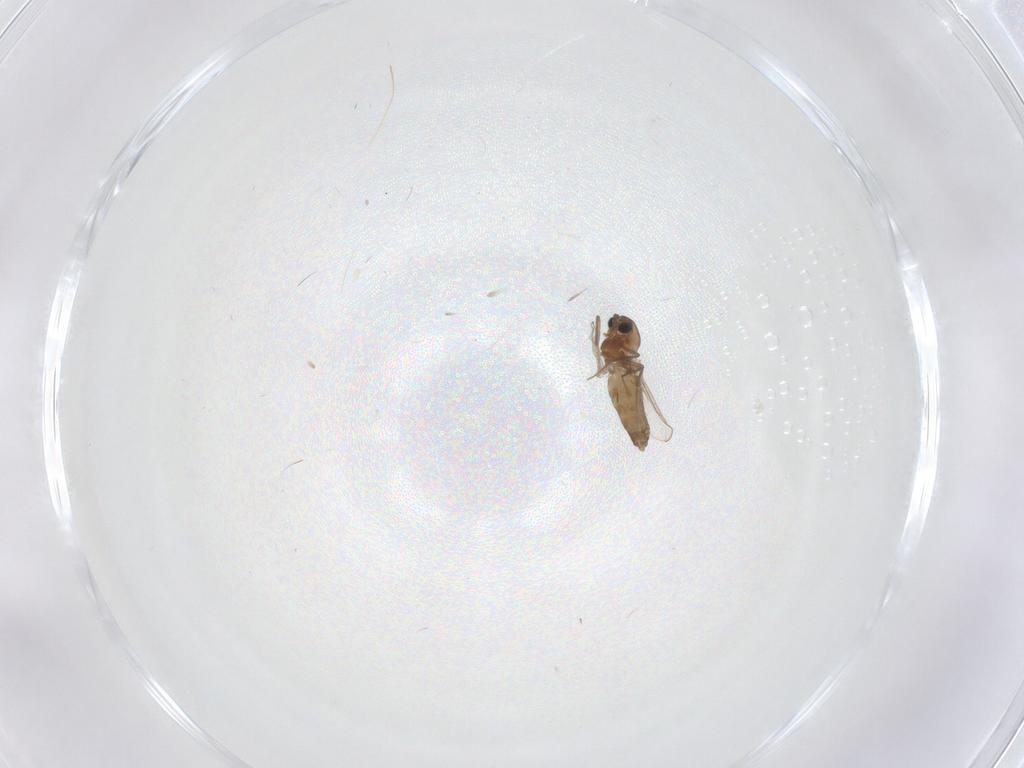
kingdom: Animalia
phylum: Arthropoda
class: Insecta
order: Diptera
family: Chironomidae
